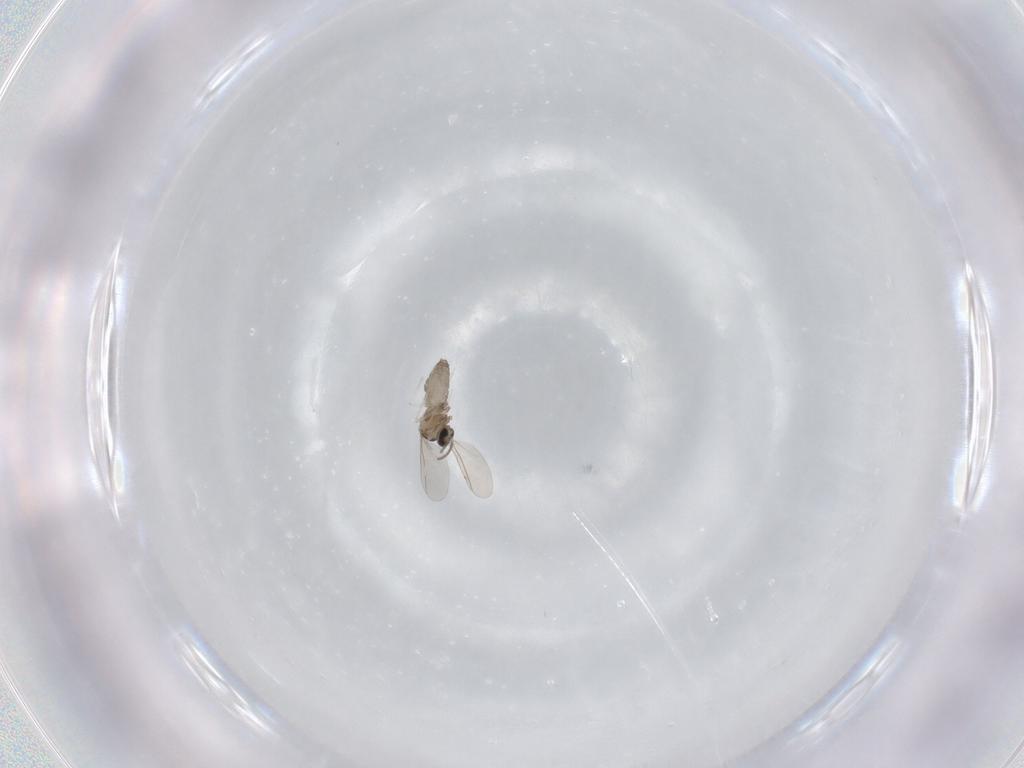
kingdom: Animalia
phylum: Arthropoda
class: Insecta
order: Diptera
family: Cecidomyiidae
